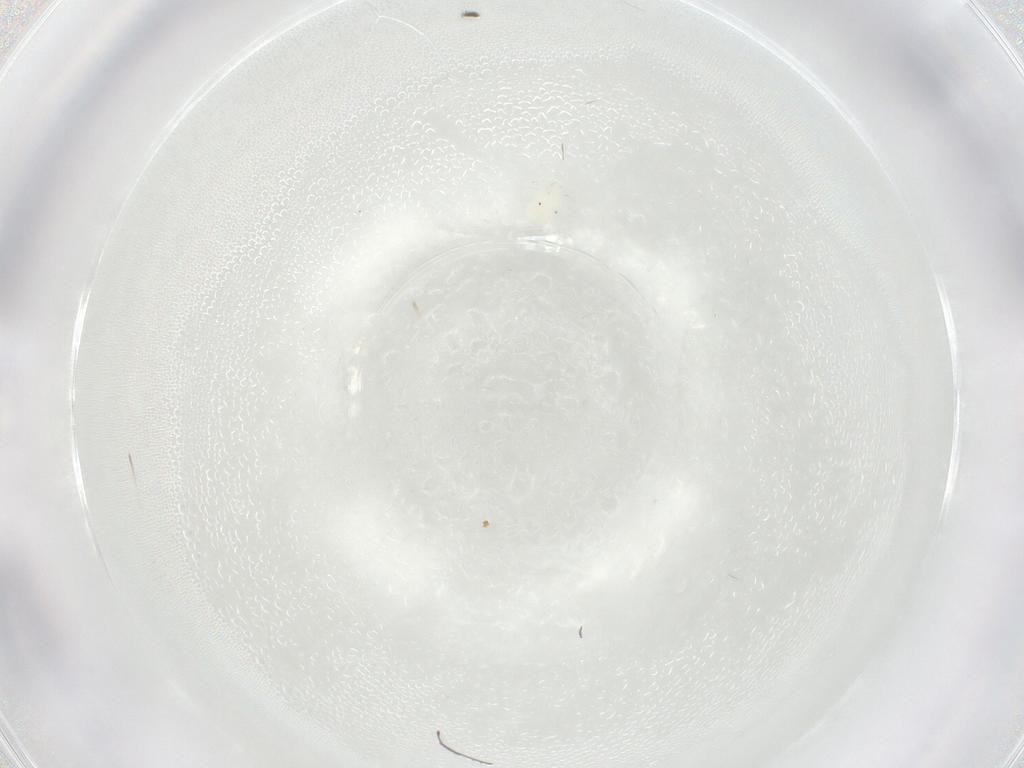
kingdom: Animalia
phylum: Arthropoda
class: Arachnida
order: Trombidiformes
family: Anystidae
